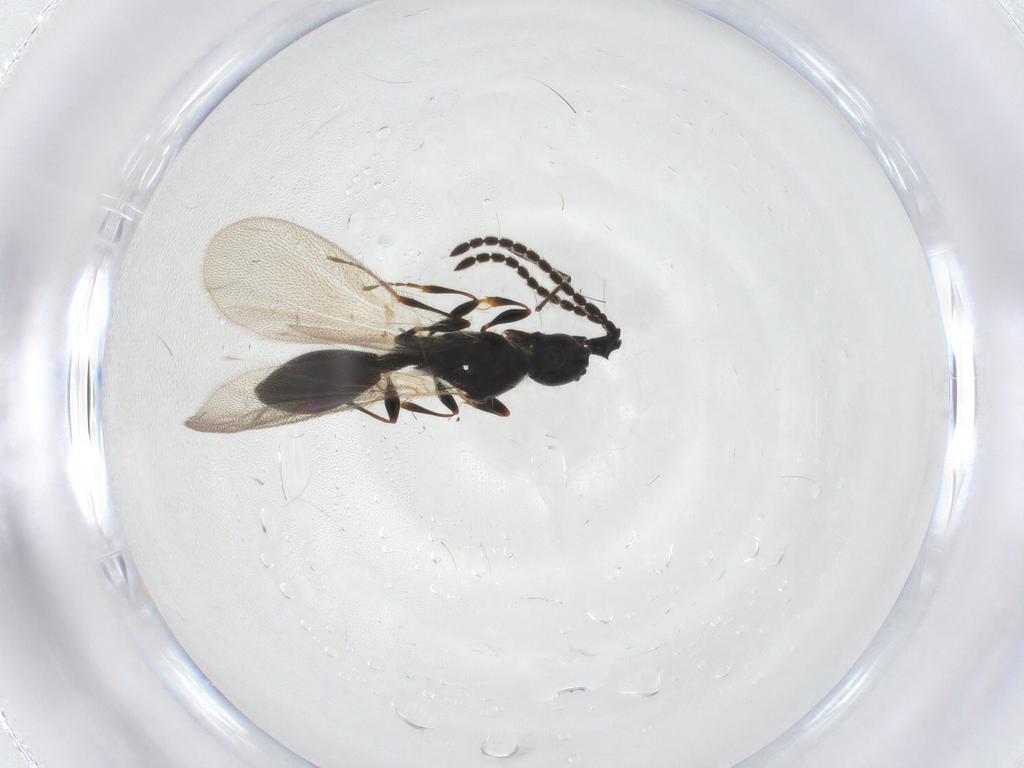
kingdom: Animalia
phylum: Arthropoda
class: Insecta
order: Hymenoptera
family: Diapriidae
